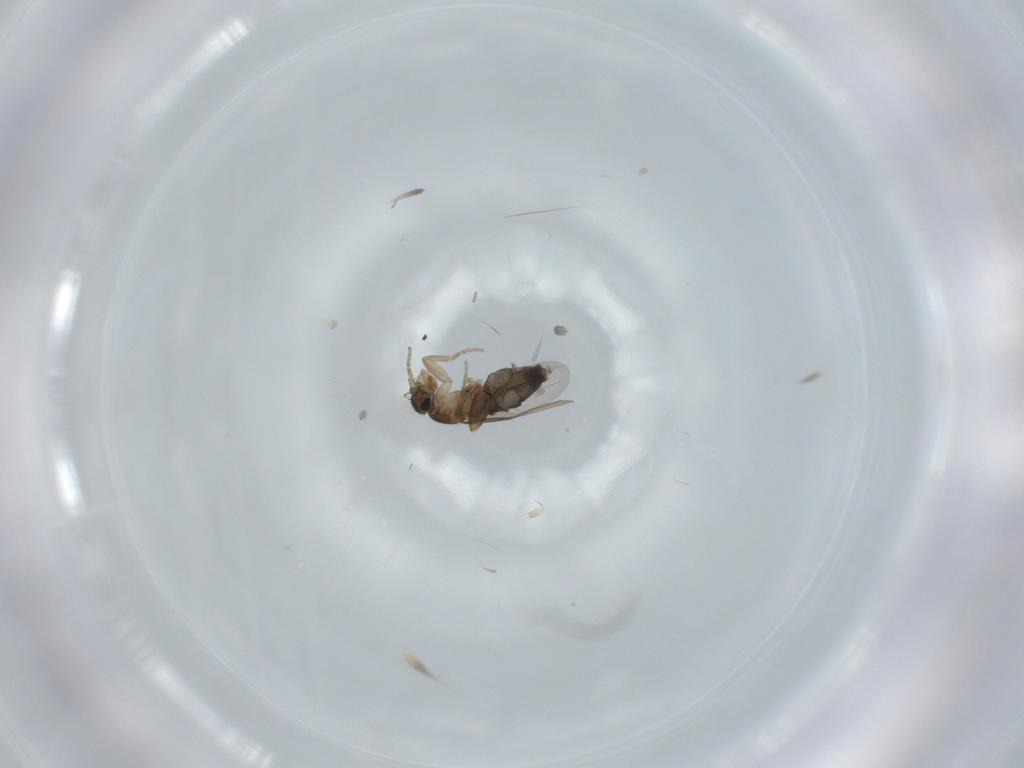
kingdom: Animalia
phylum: Arthropoda
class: Insecta
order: Diptera
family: Sciaridae
